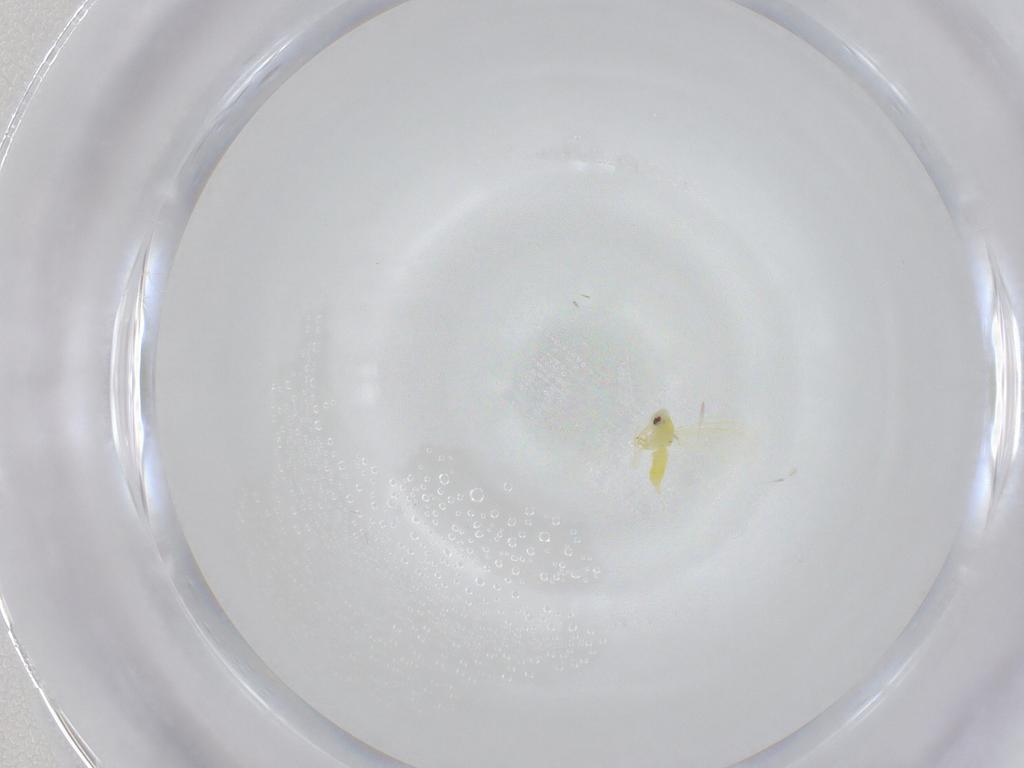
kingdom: Animalia
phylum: Arthropoda
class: Insecta
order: Hemiptera
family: Aleyrodidae
